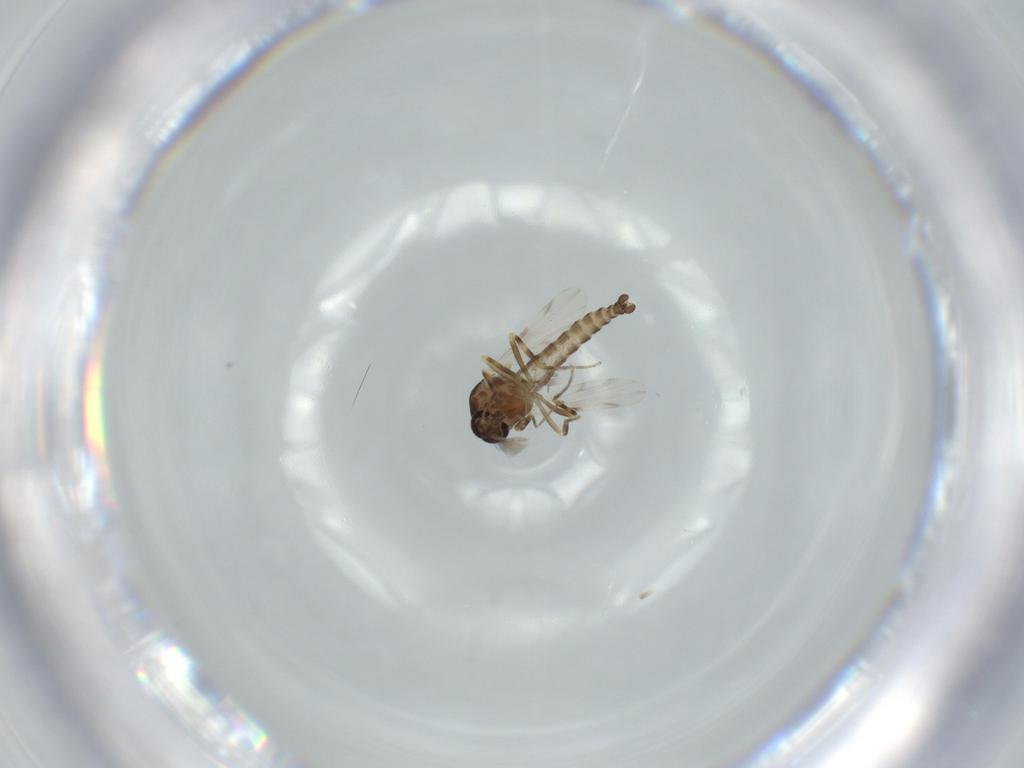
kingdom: Animalia
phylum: Arthropoda
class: Insecta
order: Diptera
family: Ceratopogonidae
